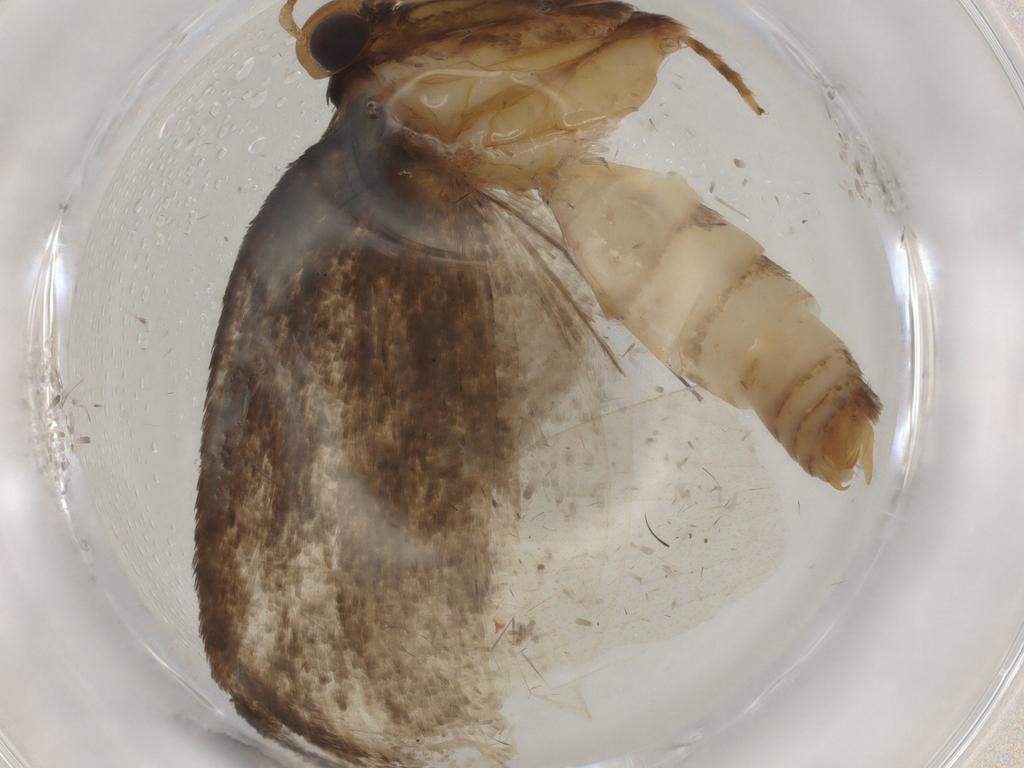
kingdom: Animalia
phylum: Arthropoda
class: Insecta
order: Lepidoptera
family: Oecophoridae
